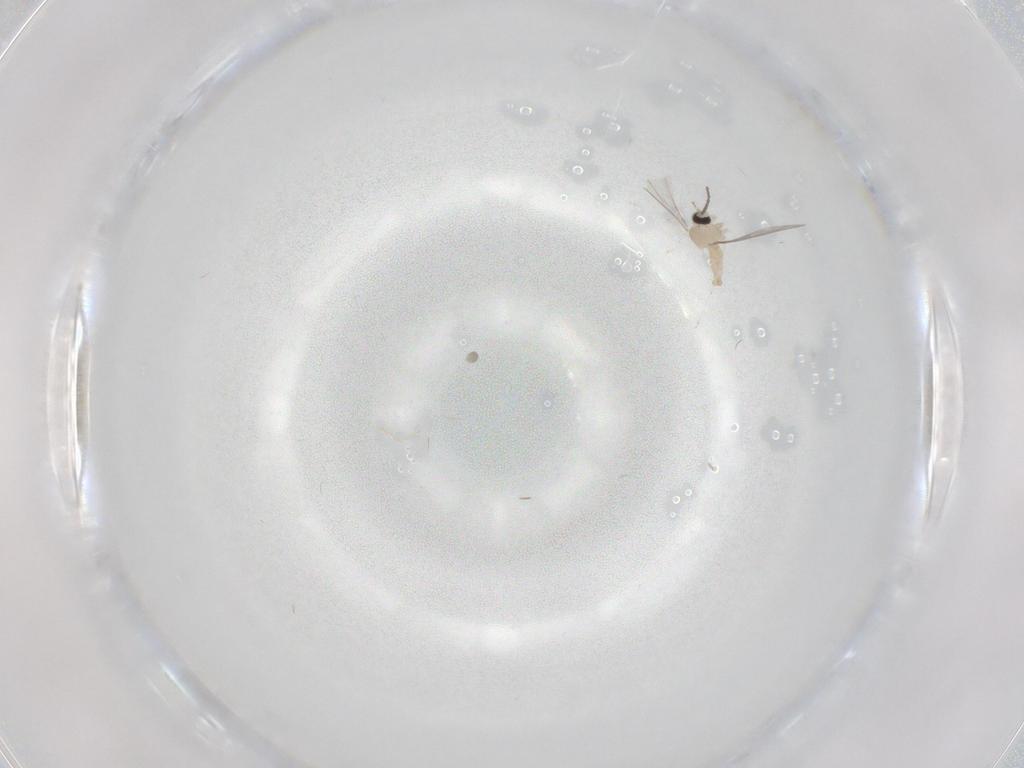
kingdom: Animalia
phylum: Arthropoda
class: Insecta
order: Diptera
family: Cecidomyiidae
